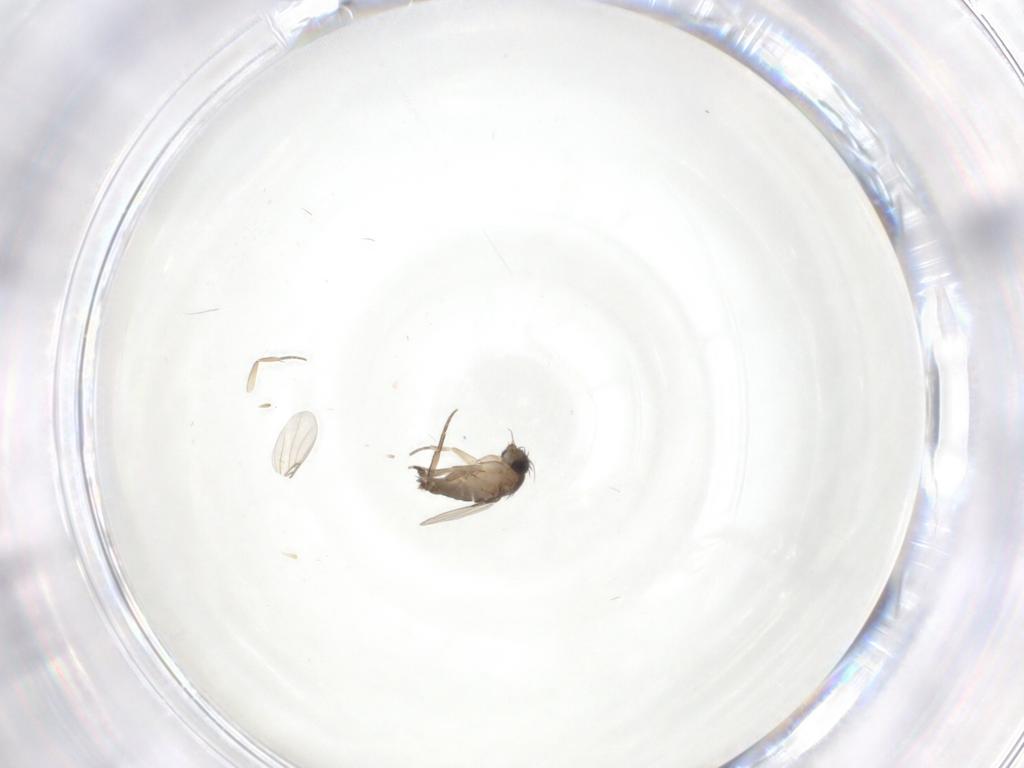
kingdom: Animalia
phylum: Arthropoda
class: Insecta
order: Diptera
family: Phoridae
